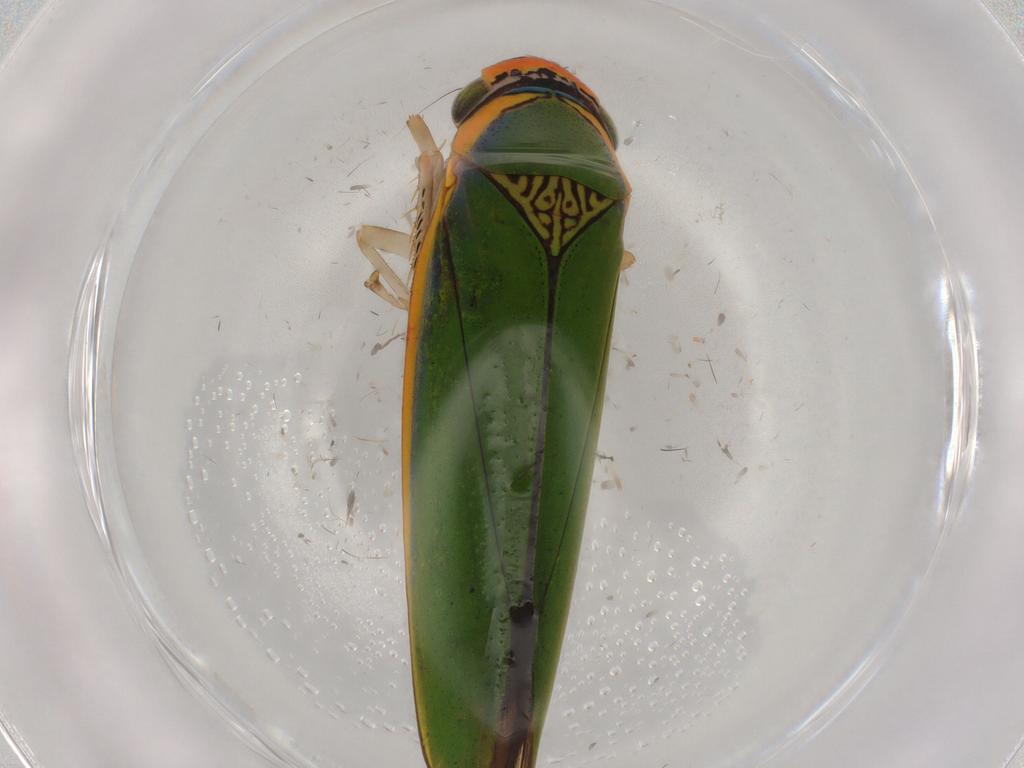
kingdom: Animalia
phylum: Arthropoda
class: Insecta
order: Hemiptera
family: Cicadellidae
